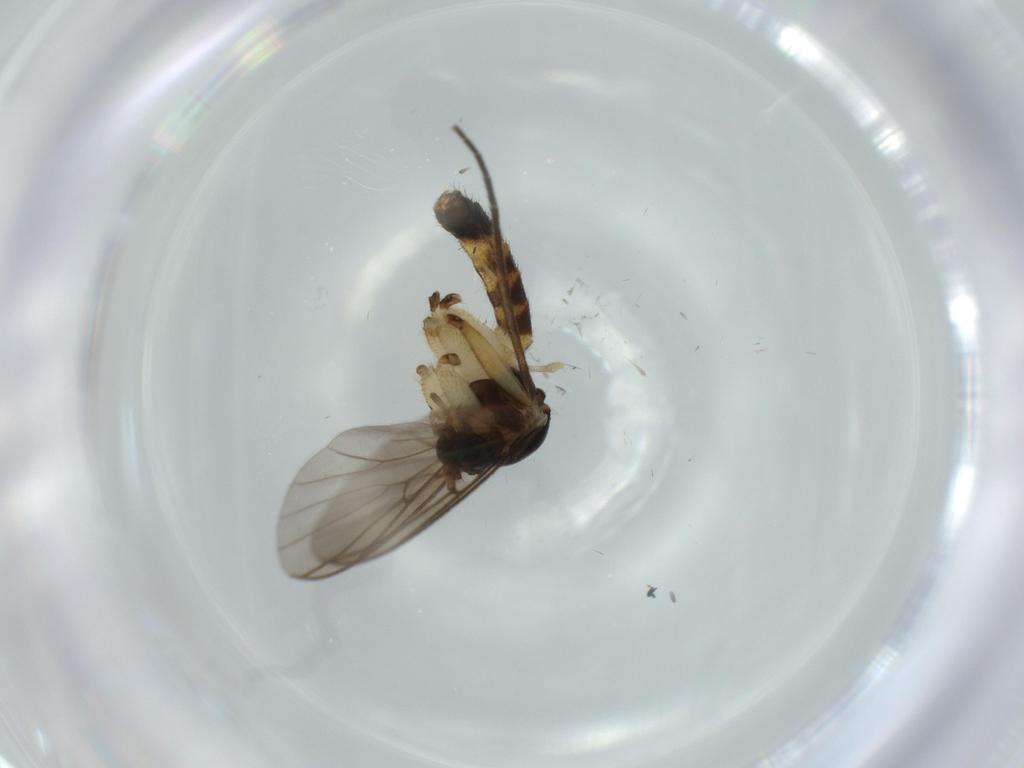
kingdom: Animalia
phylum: Arthropoda
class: Insecta
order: Diptera
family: Mycetophilidae
